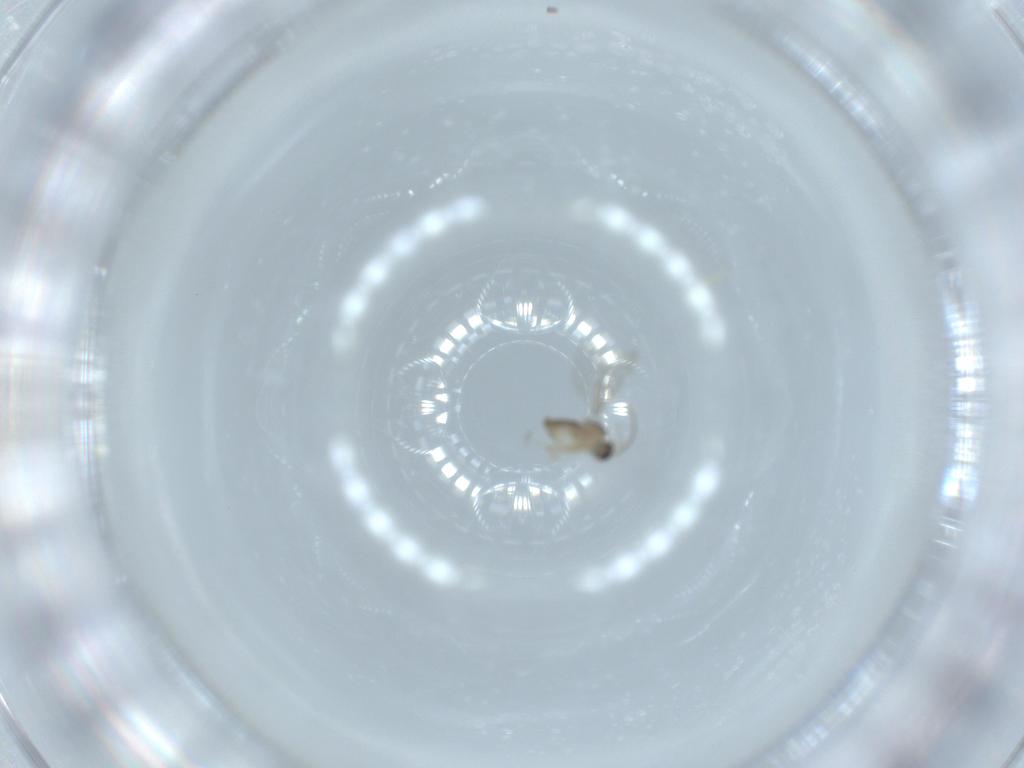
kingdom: Animalia
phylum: Arthropoda
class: Insecta
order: Diptera
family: Cecidomyiidae
